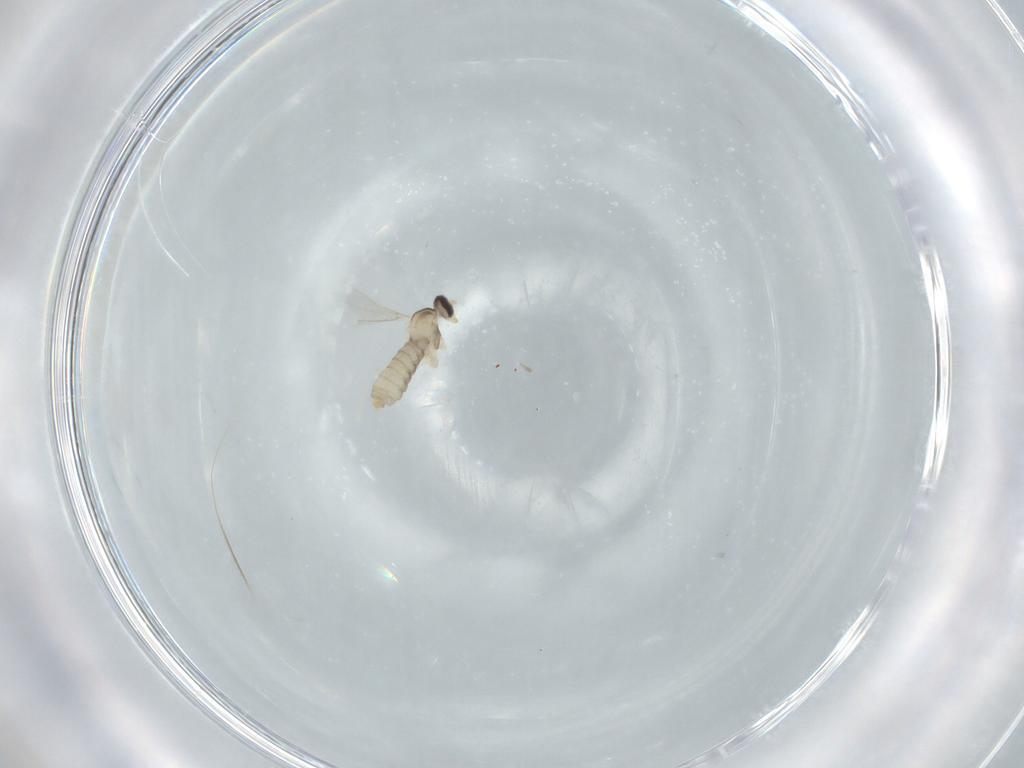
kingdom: Animalia
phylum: Arthropoda
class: Insecta
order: Diptera
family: Cecidomyiidae
